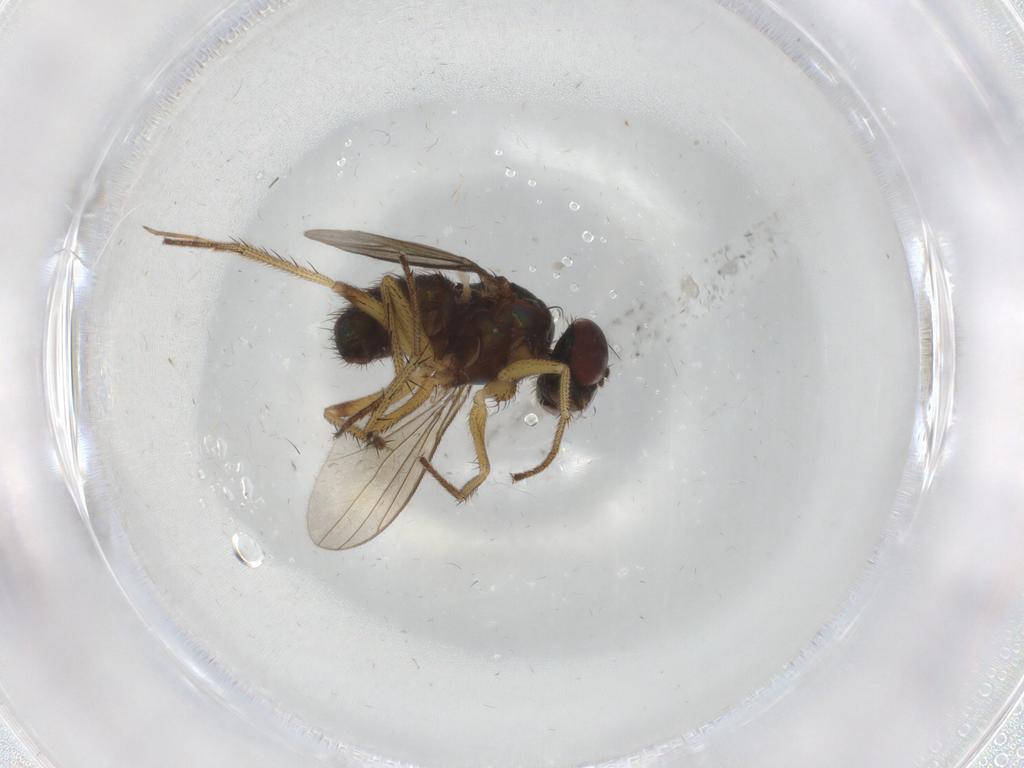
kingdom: Animalia
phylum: Arthropoda
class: Insecta
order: Diptera
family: Dolichopodidae
